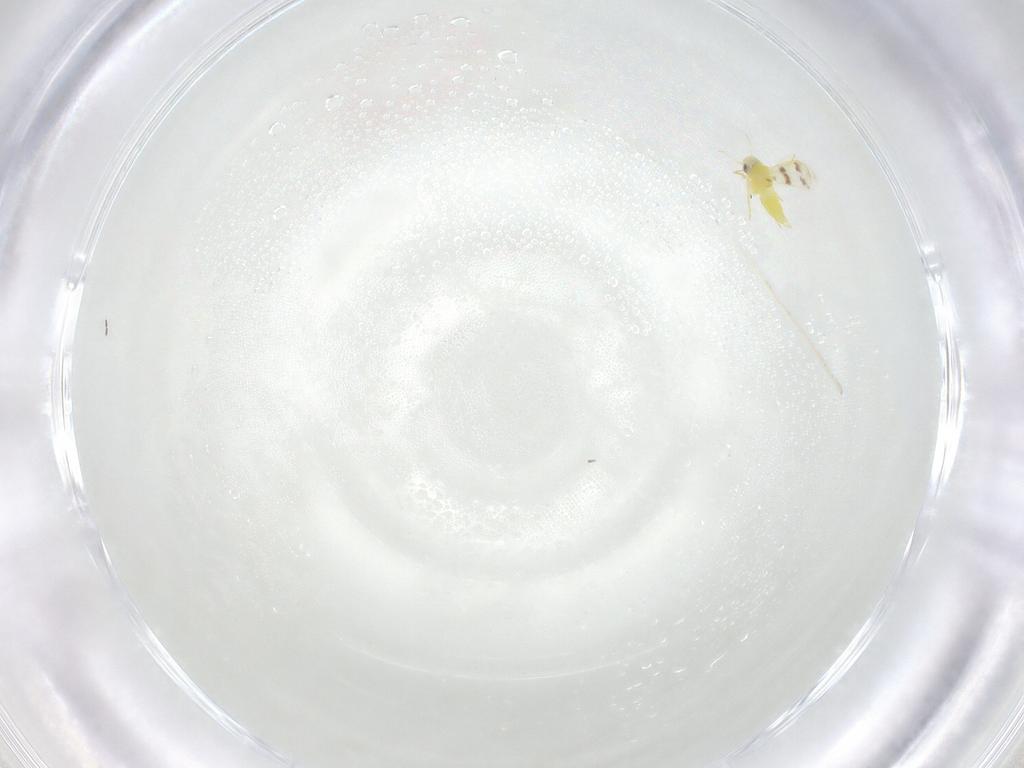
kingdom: Animalia
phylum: Arthropoda
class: Insecta
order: Hemiptera
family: Aleyrodidae
